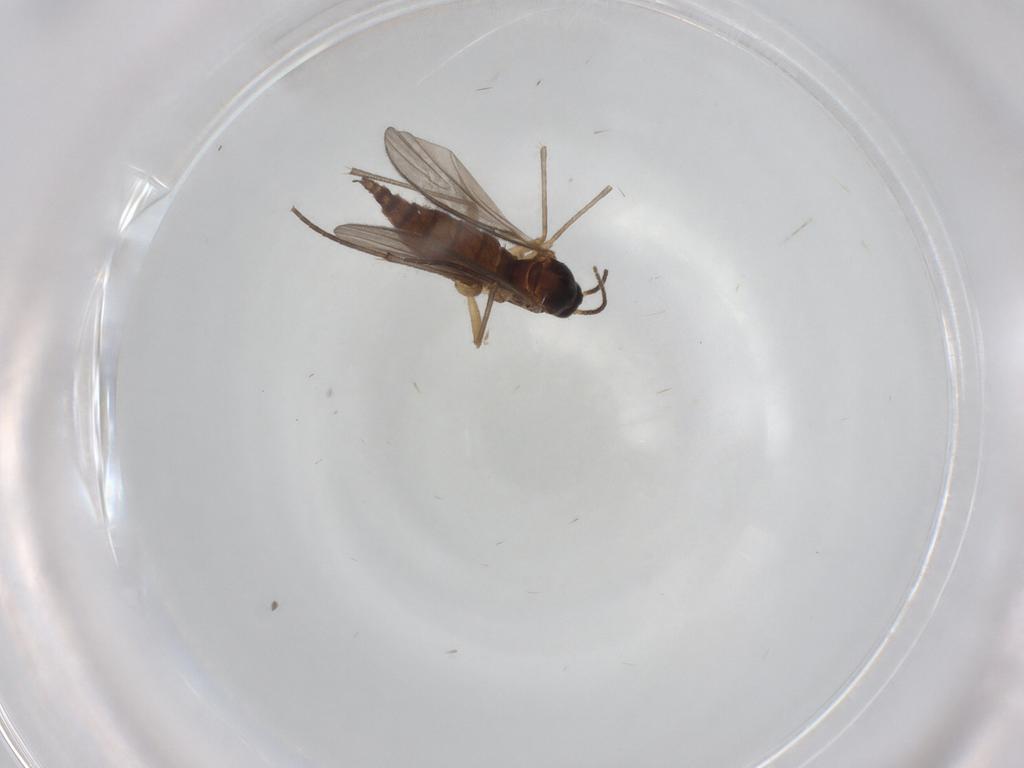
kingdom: Animalia
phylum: Arthropoda
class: Insecta
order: Diptera
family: Sciaridae
